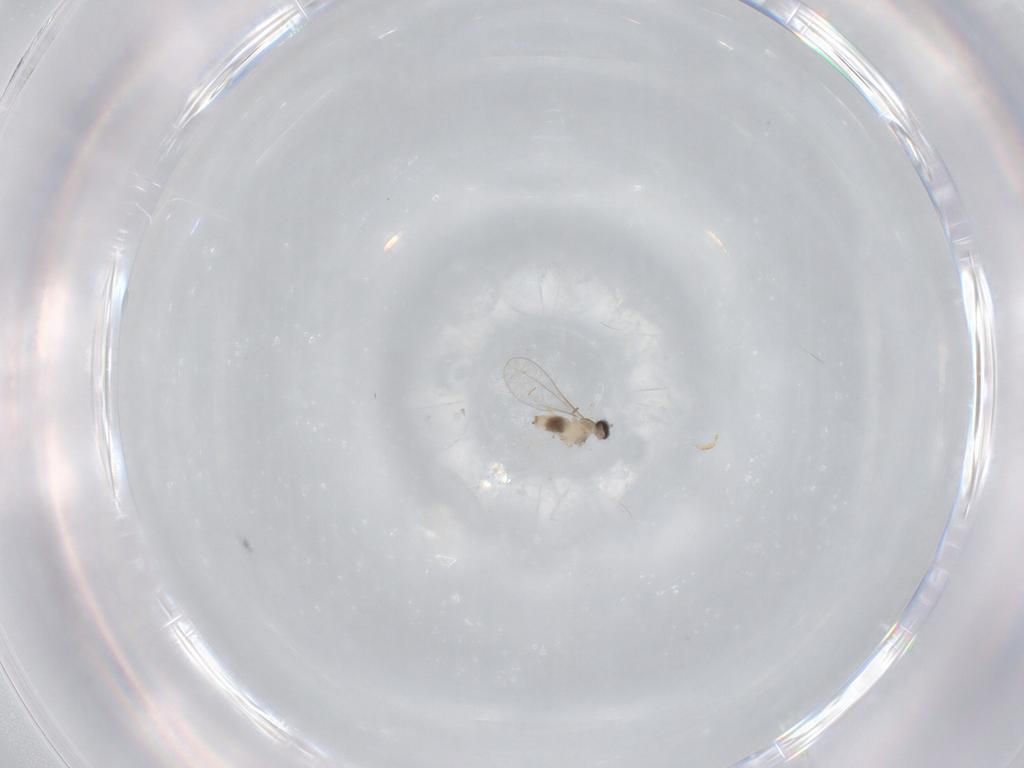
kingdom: Animalia
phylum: Arthropoda
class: Insecta
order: Diptera
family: Cecidomyiidae
